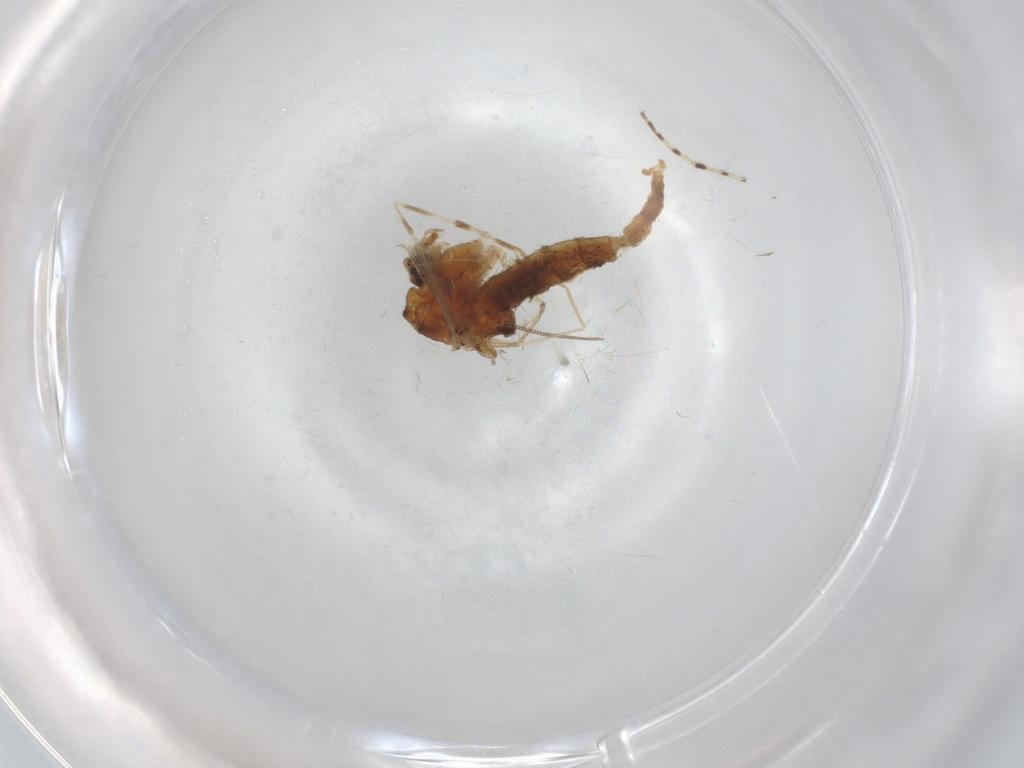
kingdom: Animalia
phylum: Arthropoda
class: Insecta
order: Diptera
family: Chironomidae
